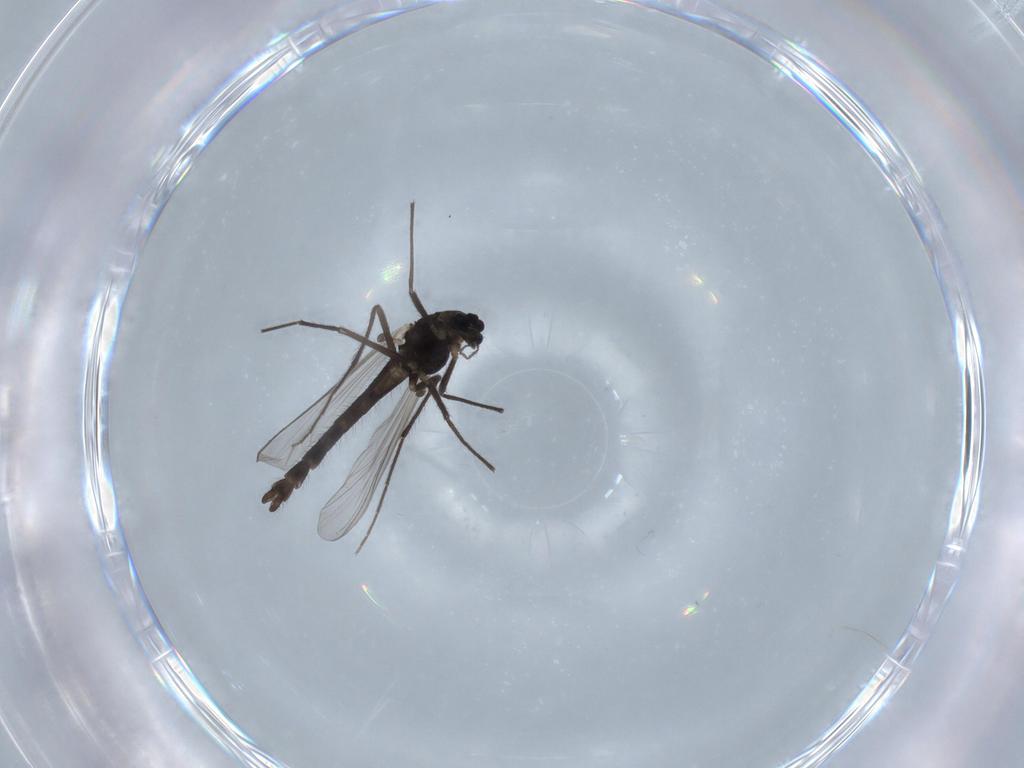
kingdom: Animalia
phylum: Arthropoda
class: Insecta
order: Diptera
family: Chironomidae
